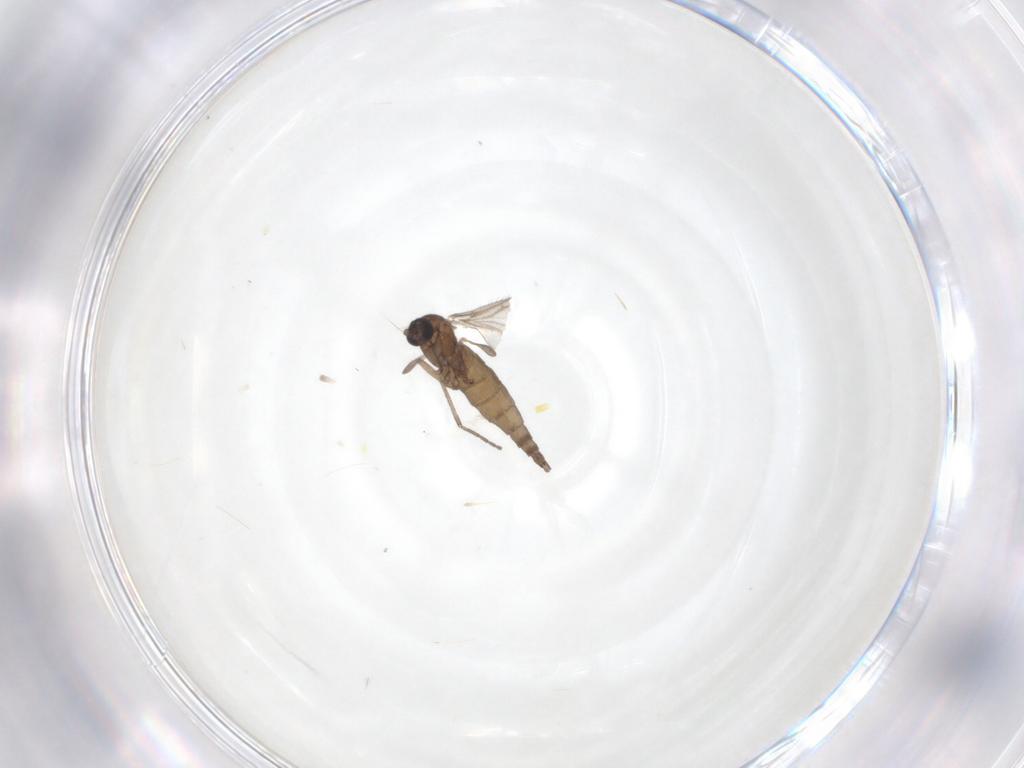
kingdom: Animalia
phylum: Arthropoda
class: Insecta
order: Diptera
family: Sciaridae
